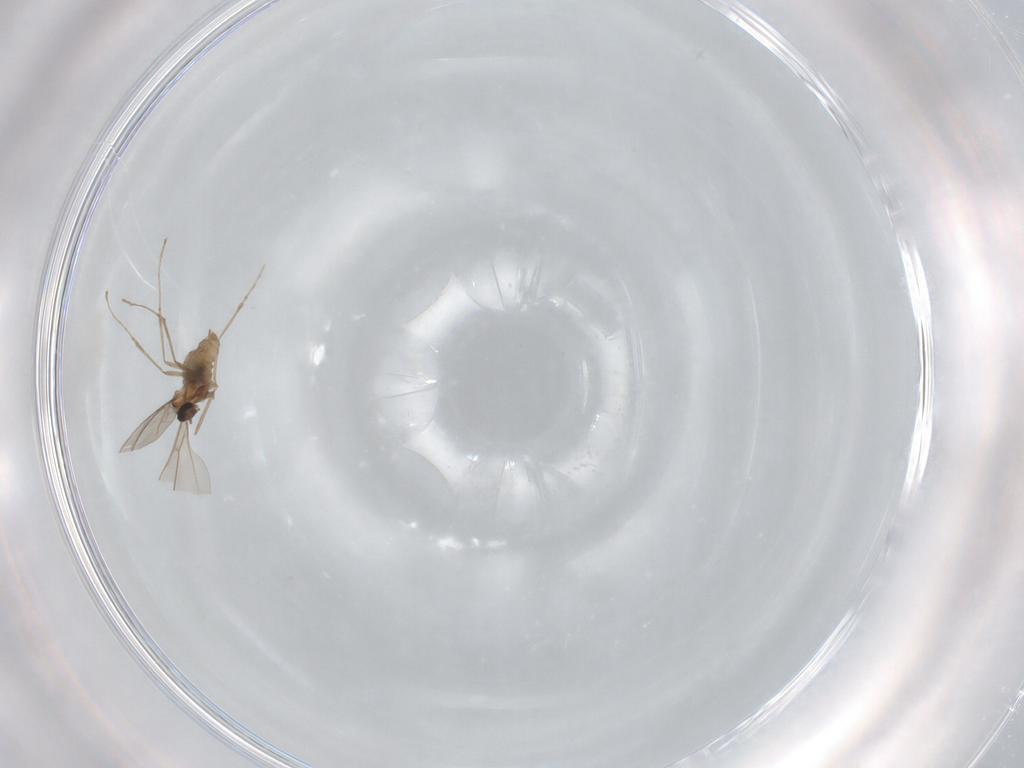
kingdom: Animalia
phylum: Arthropoda
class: Insecta
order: Diptera
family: Cecidomyiidae
